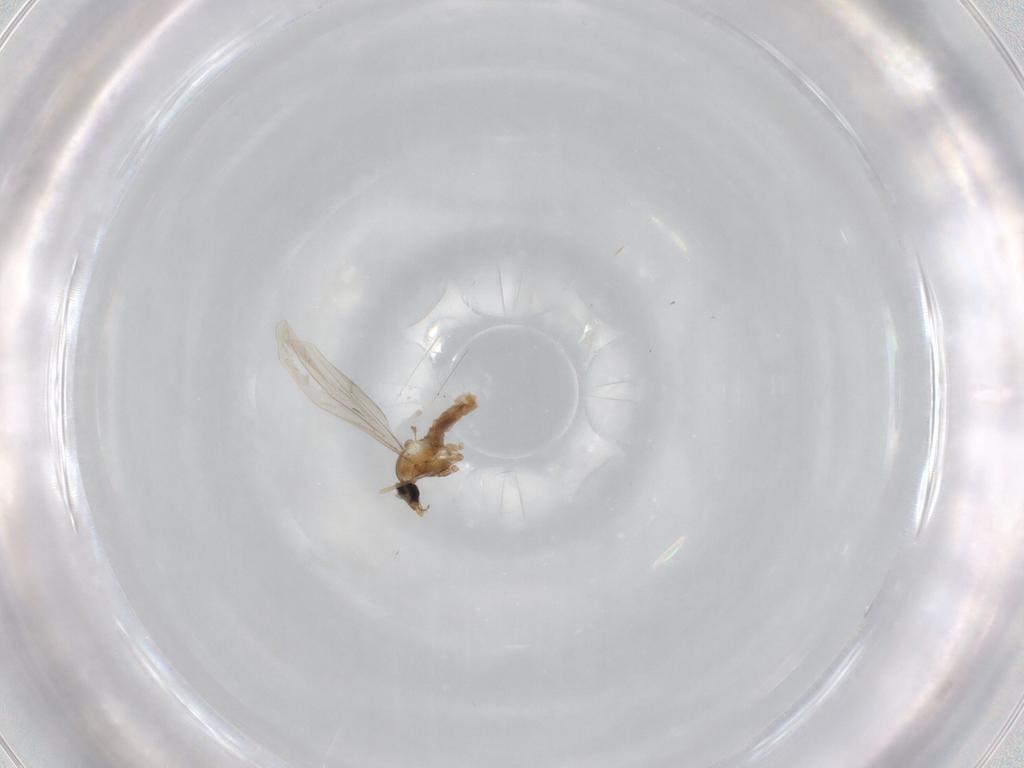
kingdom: Animalia
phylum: Arthropoda
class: Insecta
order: Diptera
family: Cecidomyiidae
